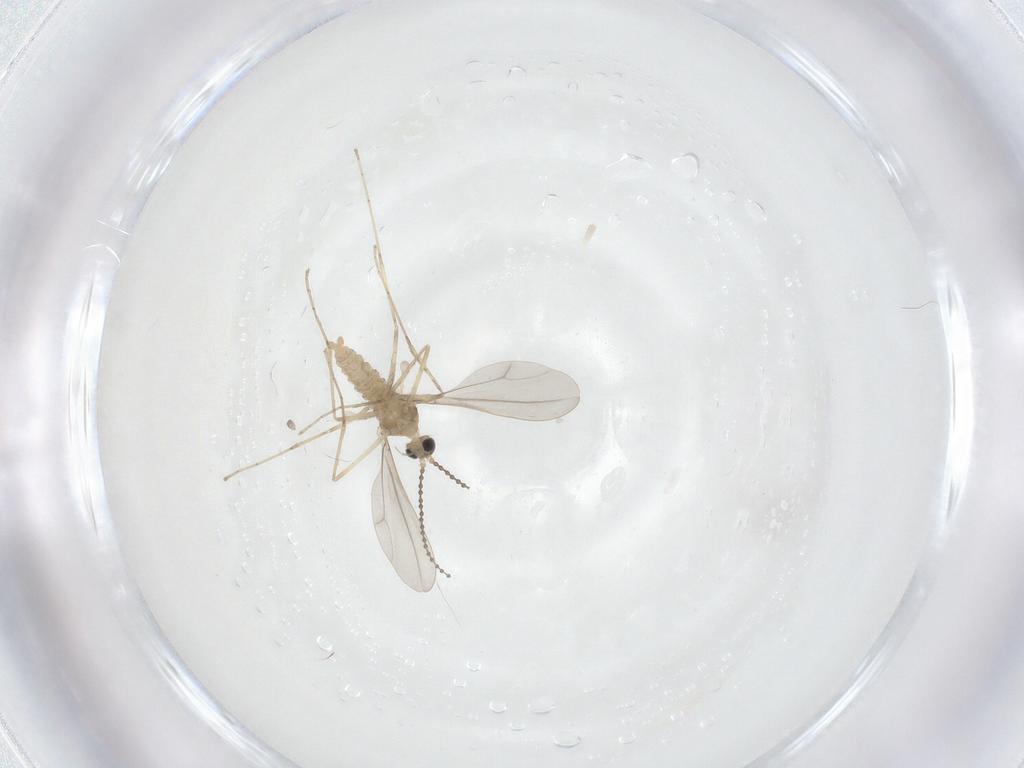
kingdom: Animalia
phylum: Arthropoda
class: Insecta
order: Diptera
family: Cecidomyiidae
